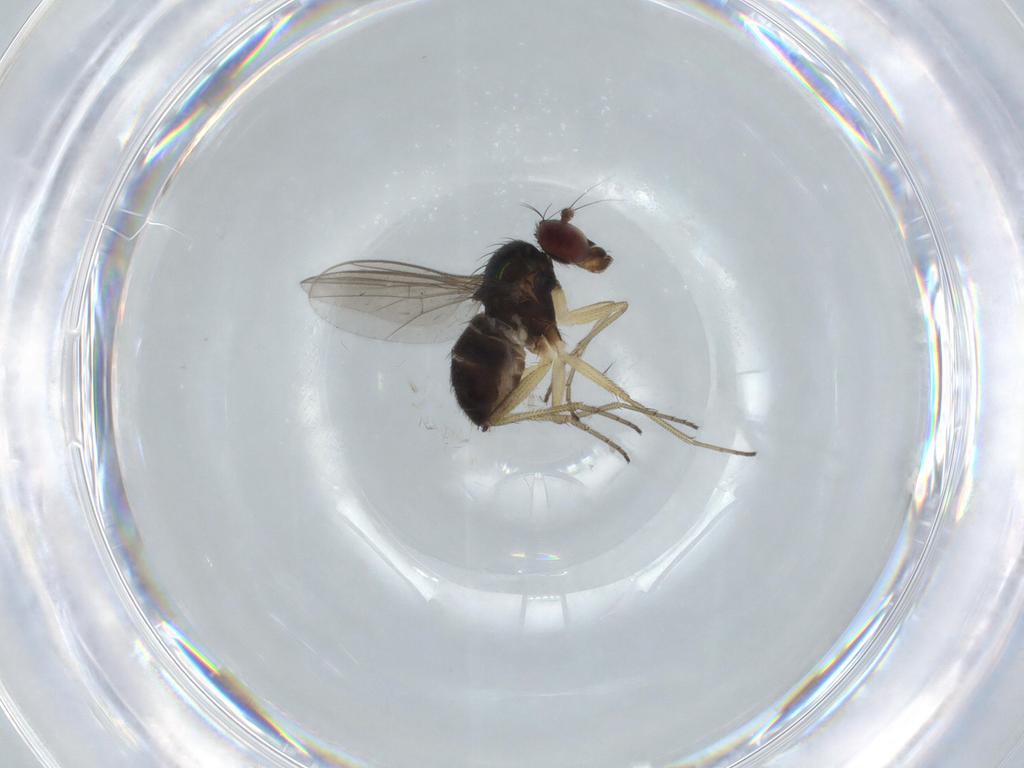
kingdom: Animalia
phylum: Arthropoda
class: Insecta
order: Diptera
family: Dolichopodidae
